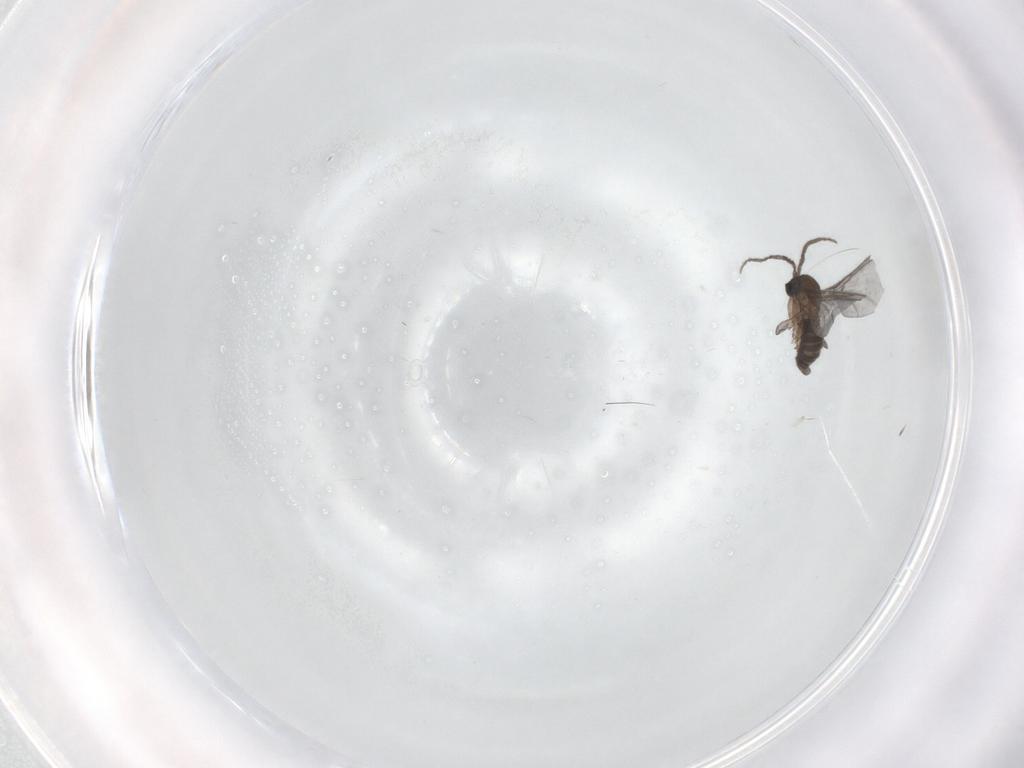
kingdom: Animalia
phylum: Arthropoda
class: Insecta
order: Diptera
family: Sciaridae
